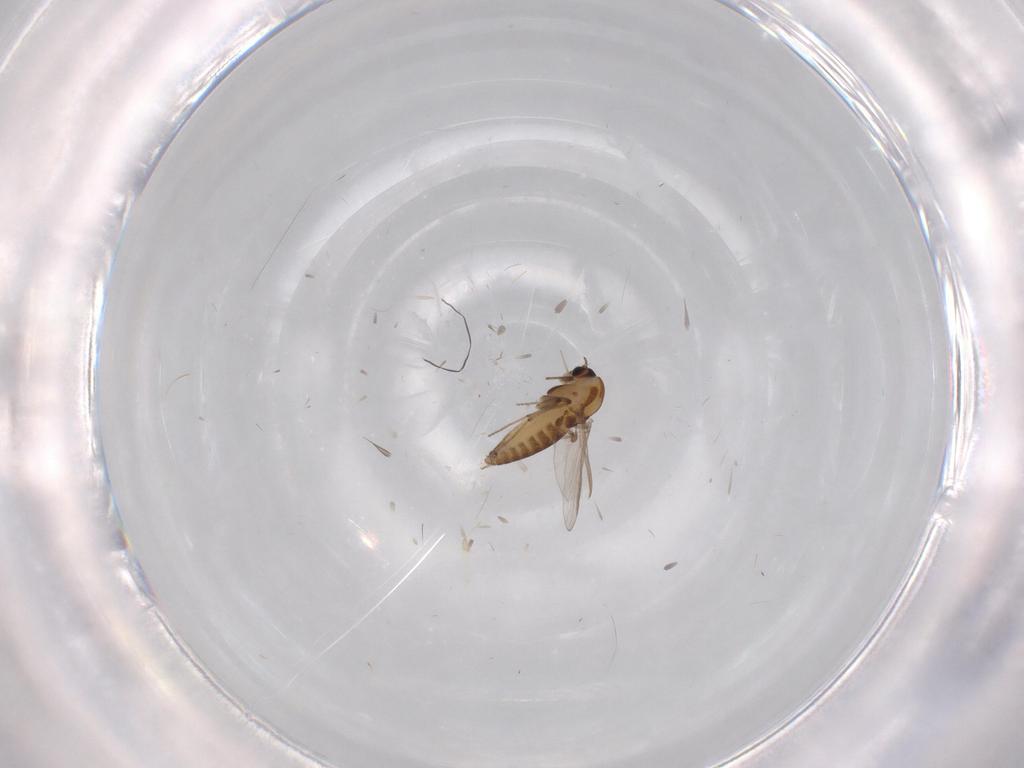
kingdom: Animalia
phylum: Arthropoda
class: Insecta
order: Diptera
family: Chironomidae
